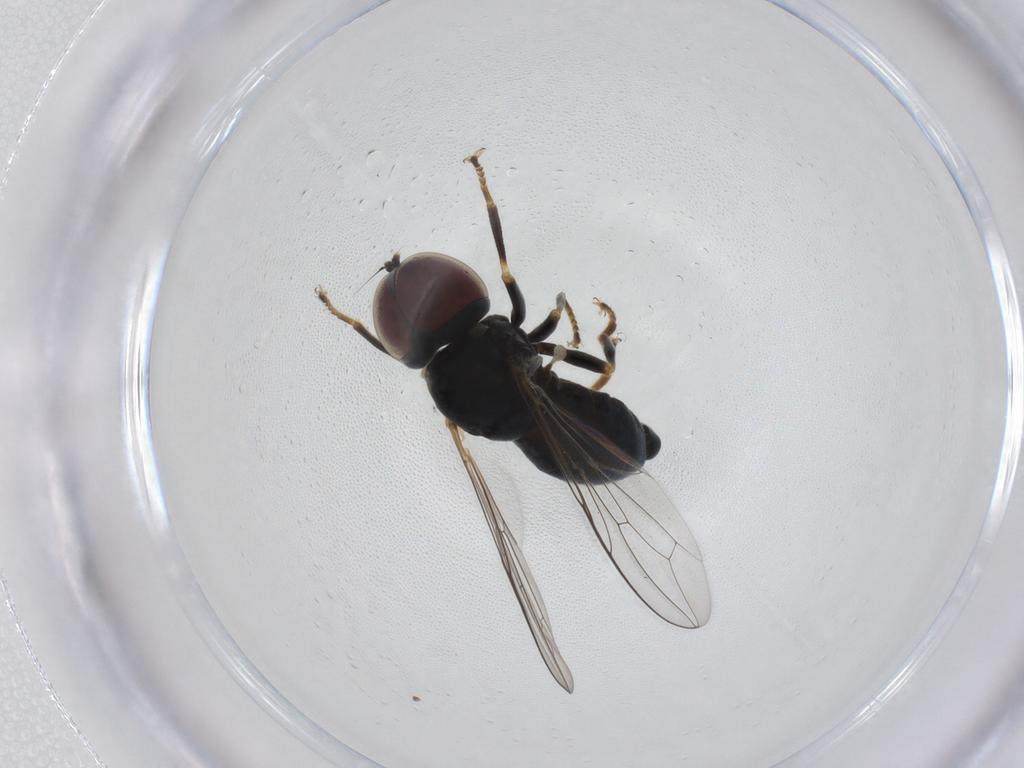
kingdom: Animalia
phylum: Arthropoda
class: Insecta
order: Diptera
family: Pipunculidae
